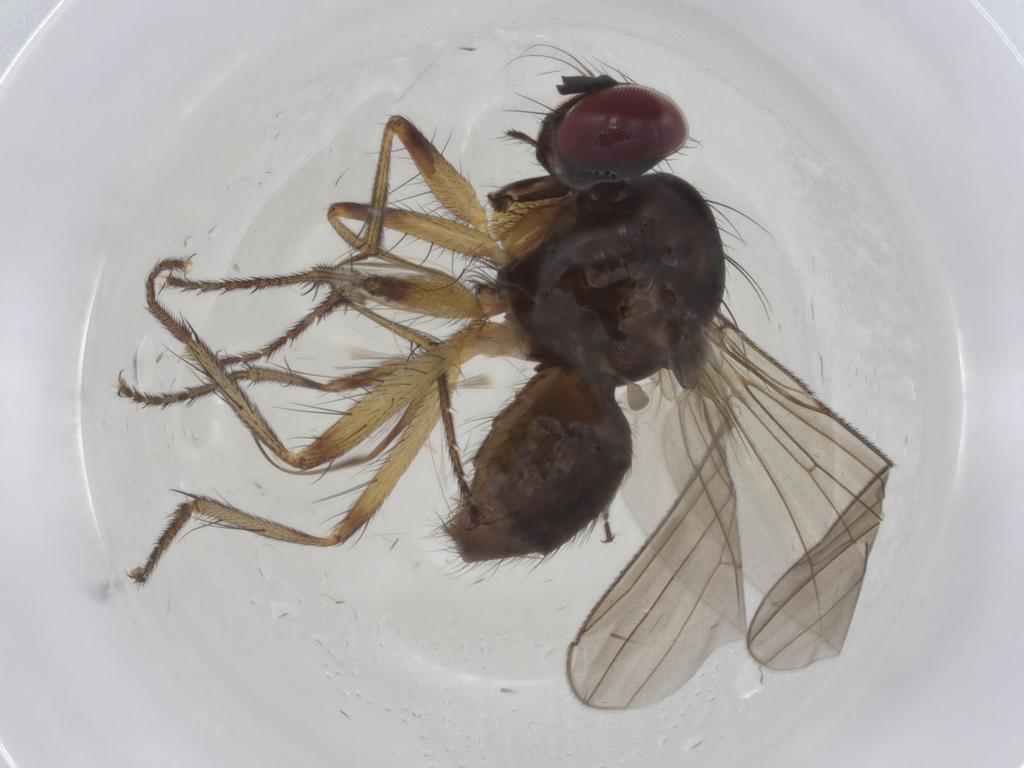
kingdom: Animalia
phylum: Arthropoda
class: Insecta
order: Diptera
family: Anthomyiidae
